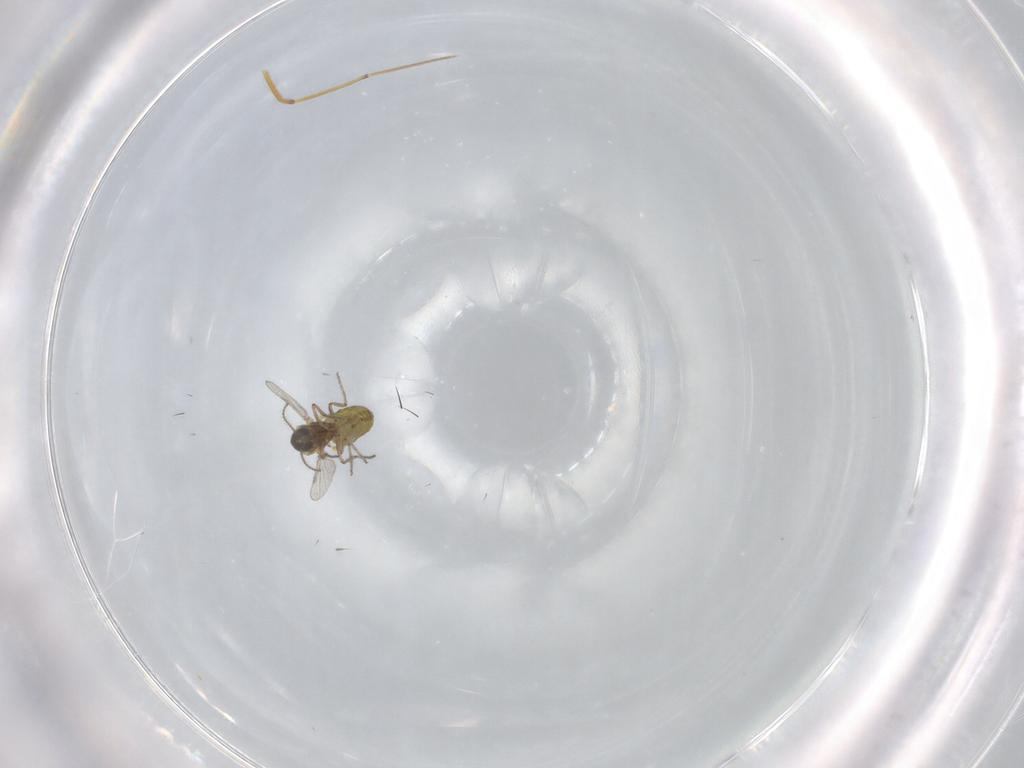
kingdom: Animalia
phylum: Arthropoda
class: Insecta
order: Diptera
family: Ceratopogonidae
